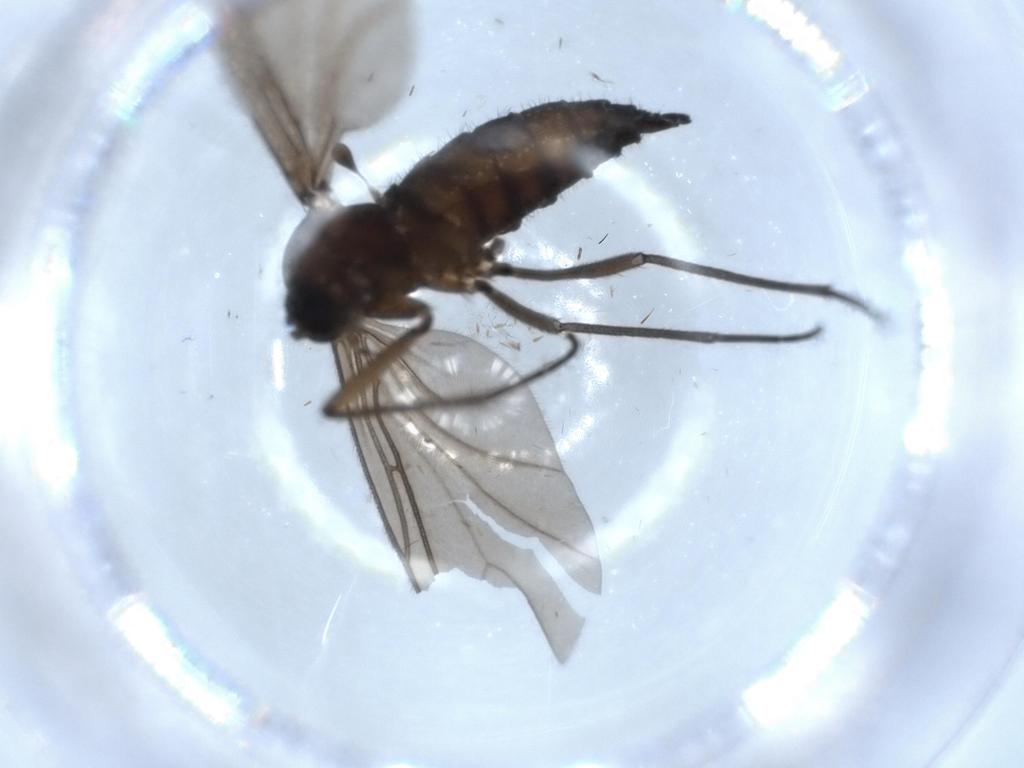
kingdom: Animalia
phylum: Arthropoda
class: Insecta
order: Diptera
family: Sciaridae
